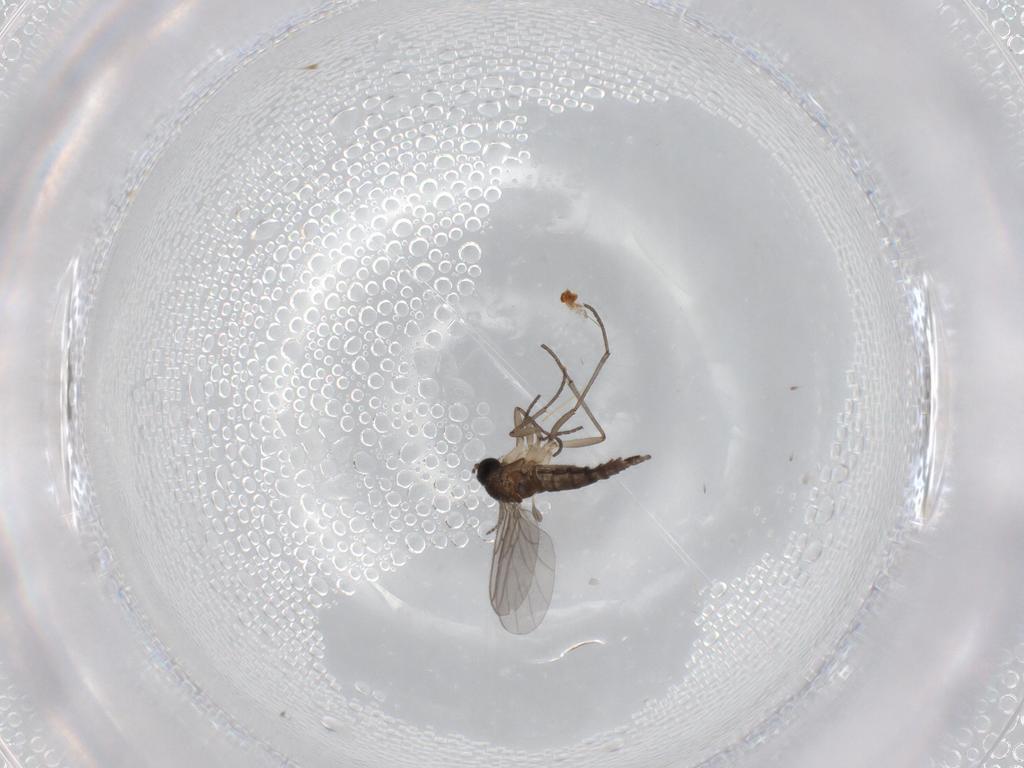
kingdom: Animalia
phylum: Arthropoda
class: Insecta
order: Diptera
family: Sciaridae
